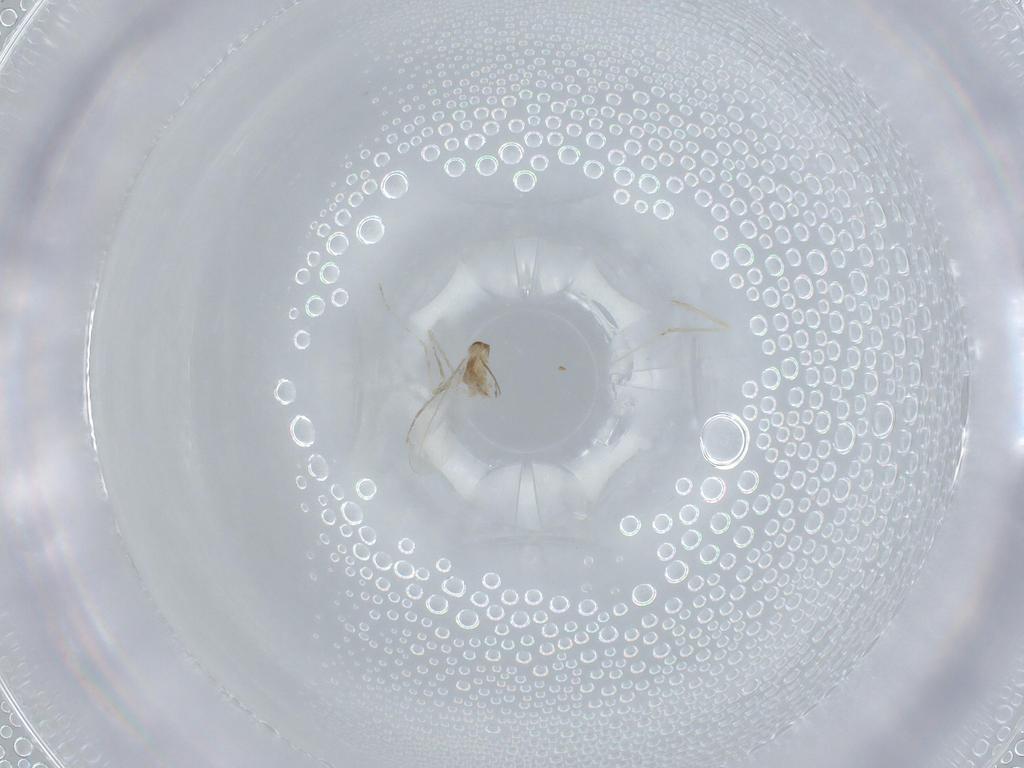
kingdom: Animalia
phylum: Arthropoda
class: Insecta
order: Diptera
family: Cecidomyiidae
